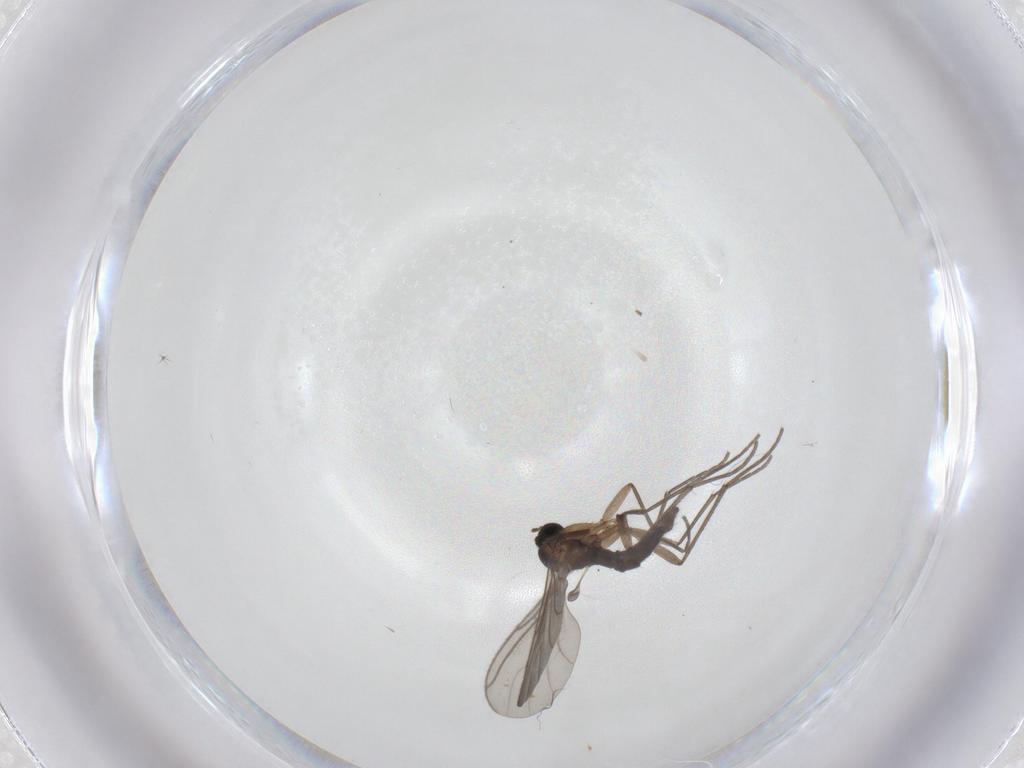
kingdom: Animalia
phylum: Arthropoda
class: Insecta
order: Diptera
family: Sciaridae
